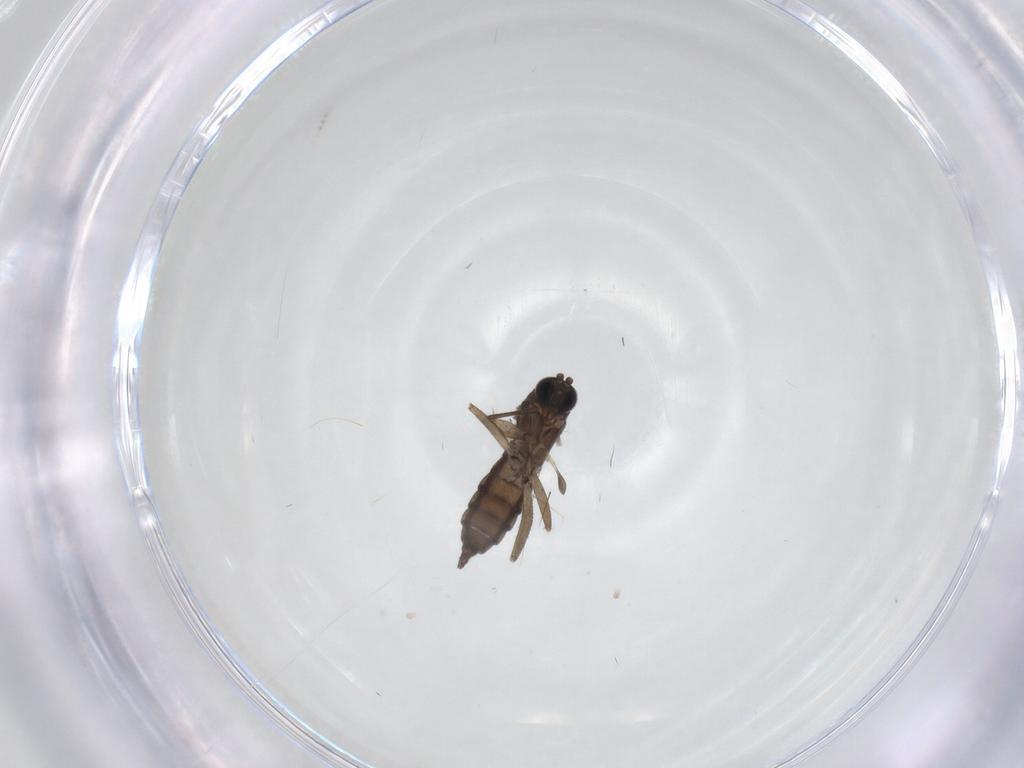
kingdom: Animalia
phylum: Arthropoda
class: Insecta
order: Diptera
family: Sciaridae
